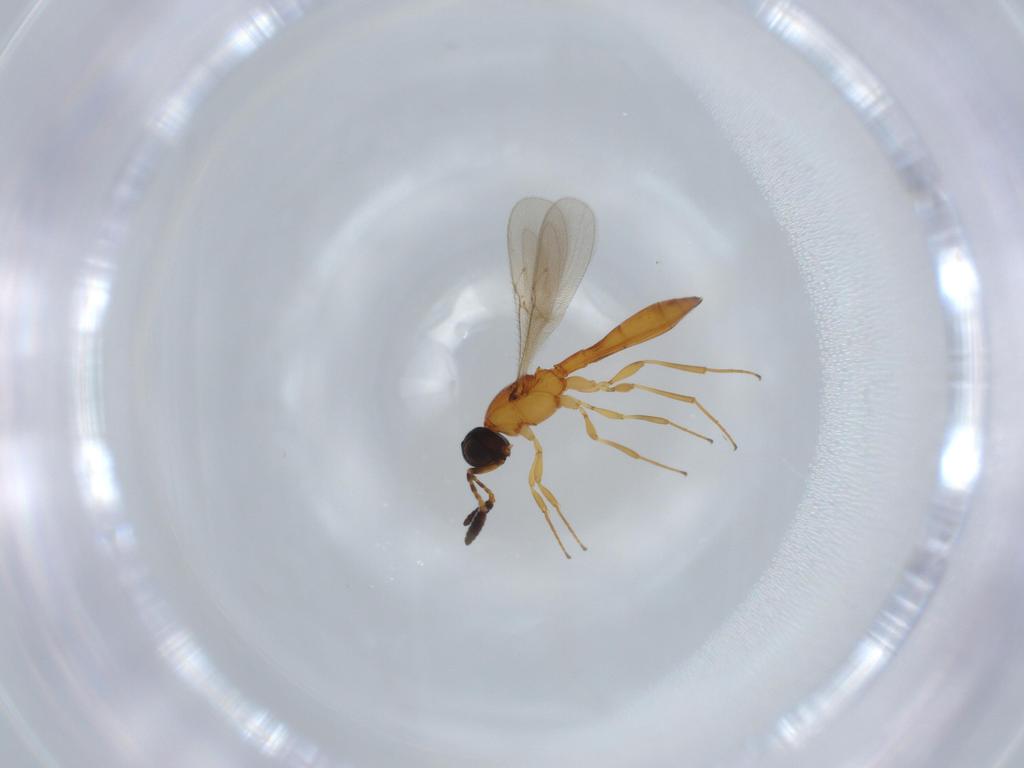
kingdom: Animalia
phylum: Arthropoda
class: Insecta
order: Hymenoptera
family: Scelionidae
